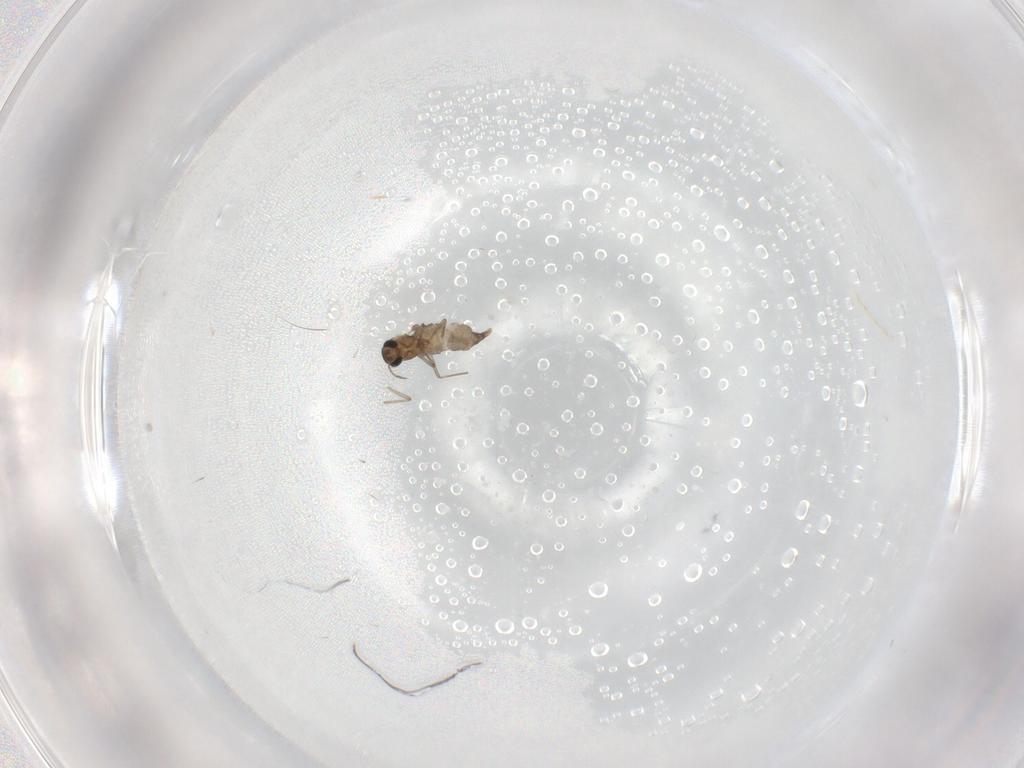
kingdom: Animalia
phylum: Arthropoda
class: Insecta
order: Diptera
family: Chironomidae
